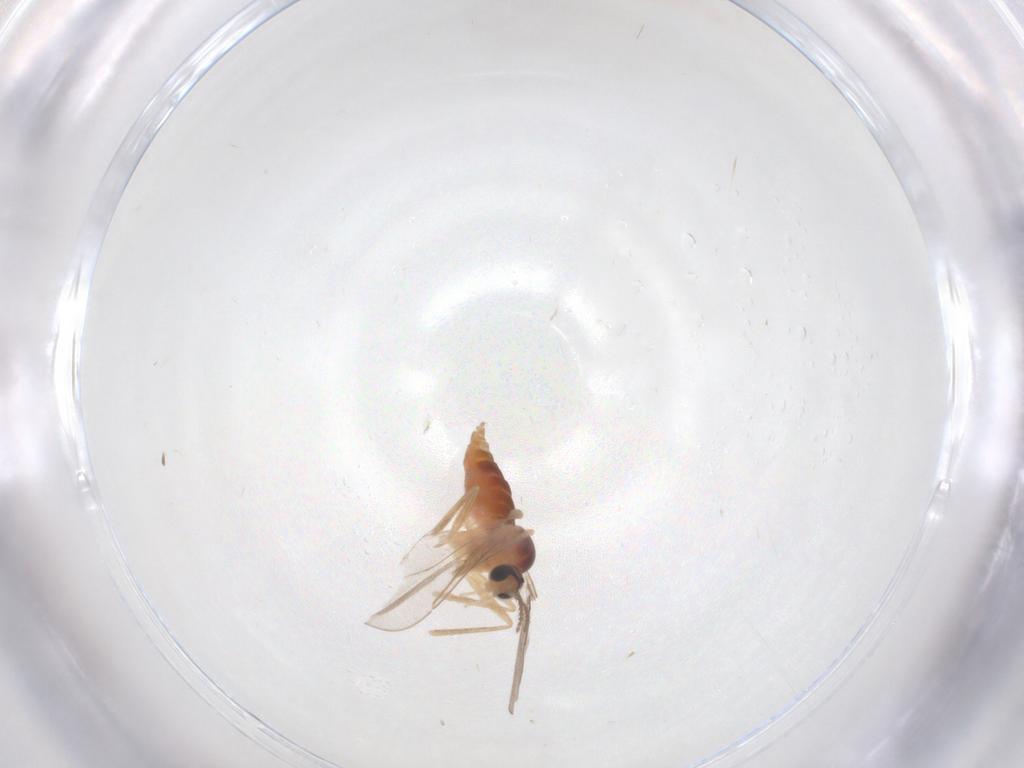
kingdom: Animalia
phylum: Arthropoda
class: Insecta
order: Diptera
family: Cecidomyiidae
